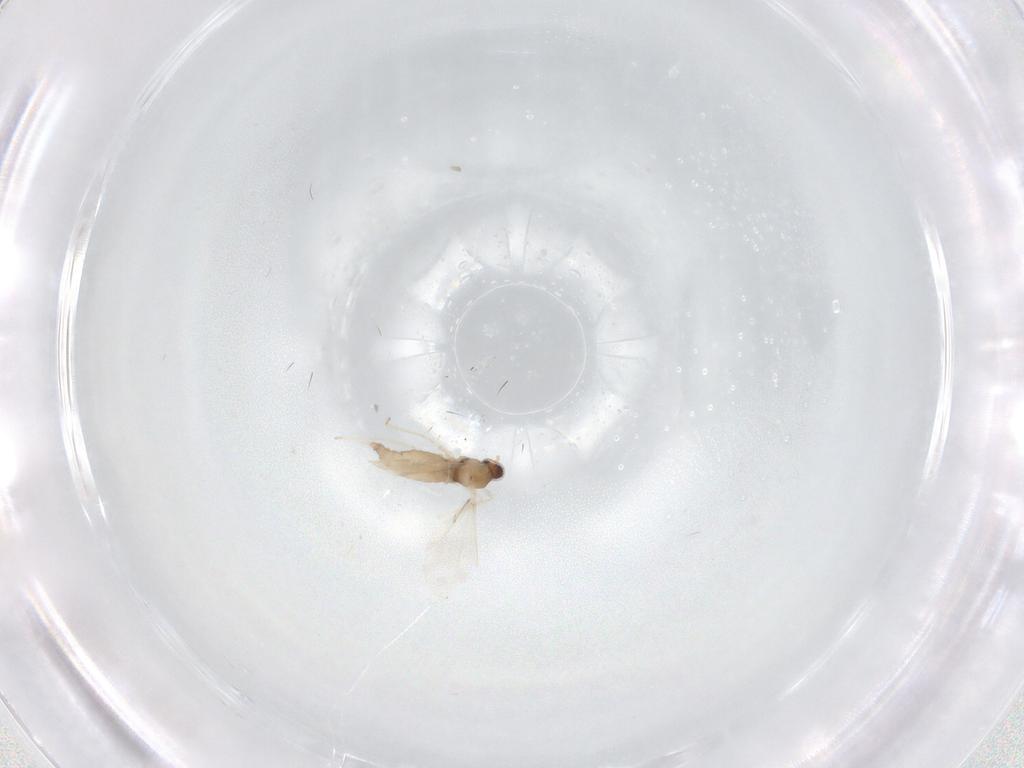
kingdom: Animalia
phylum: Arthropoda
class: Insecta
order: Diptera
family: Cecidomyiidae
